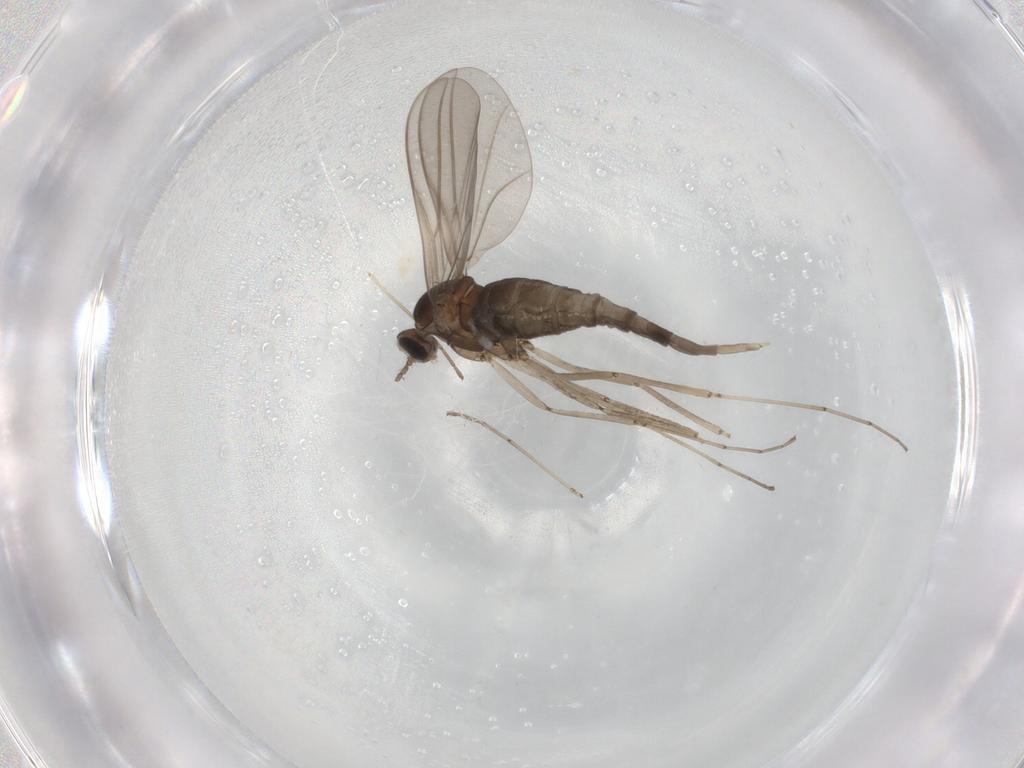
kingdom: Animalia
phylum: Arthropoda
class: Insecta
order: Diptera
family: Cecidomyiidae
